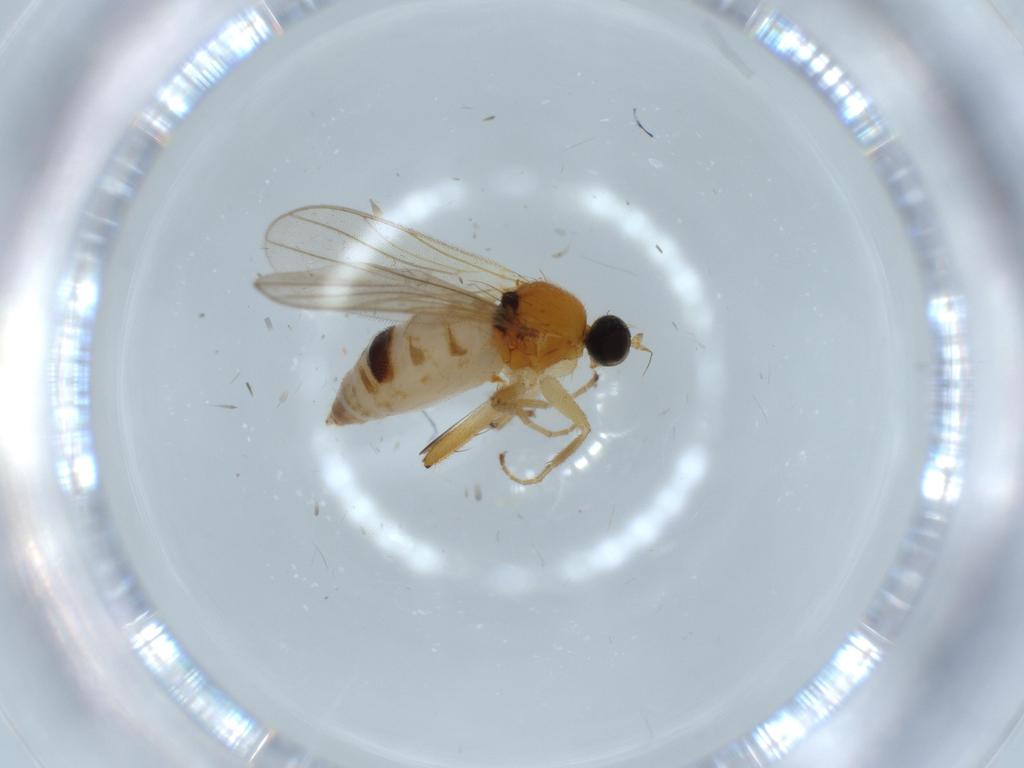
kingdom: Animalia
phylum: Arthropoda
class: Insecta
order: Diptera
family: Hybotidae
